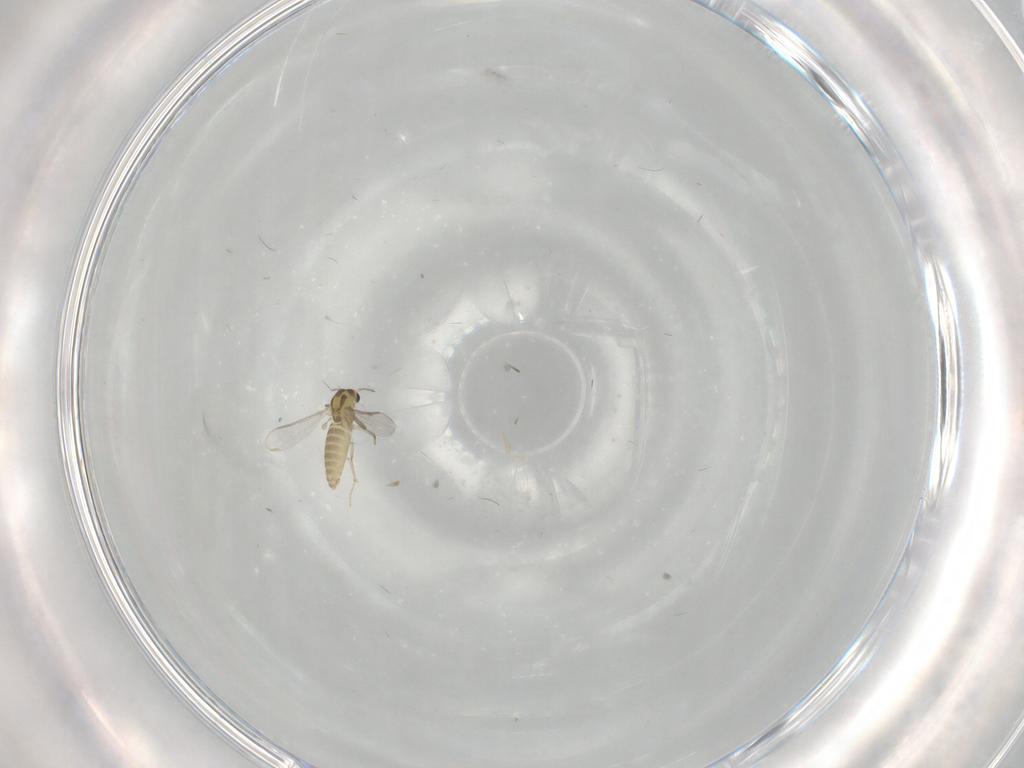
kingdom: Animalia
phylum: Arthropoda
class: Insecta
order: Diptera
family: Chironomidae
